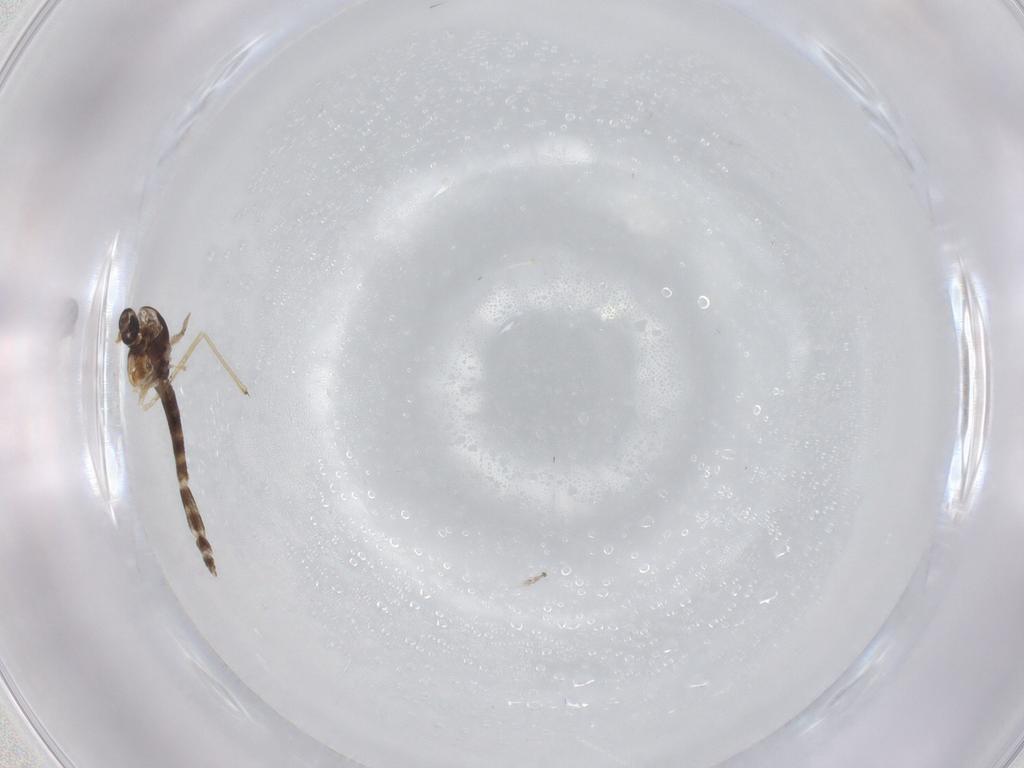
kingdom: Animalia
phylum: Arthropoda
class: Insecta
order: Diptera
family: Chironomidae
